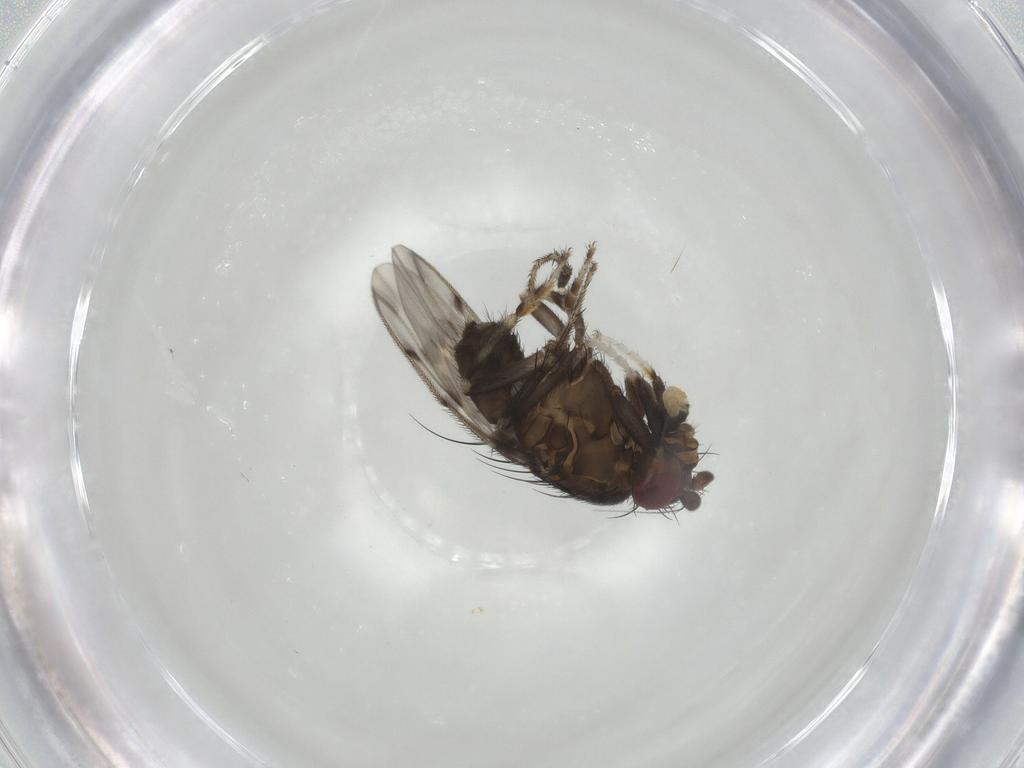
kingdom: Animalia
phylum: Arthropoda
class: Insecta
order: Diptera
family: Sphaeroceridae
